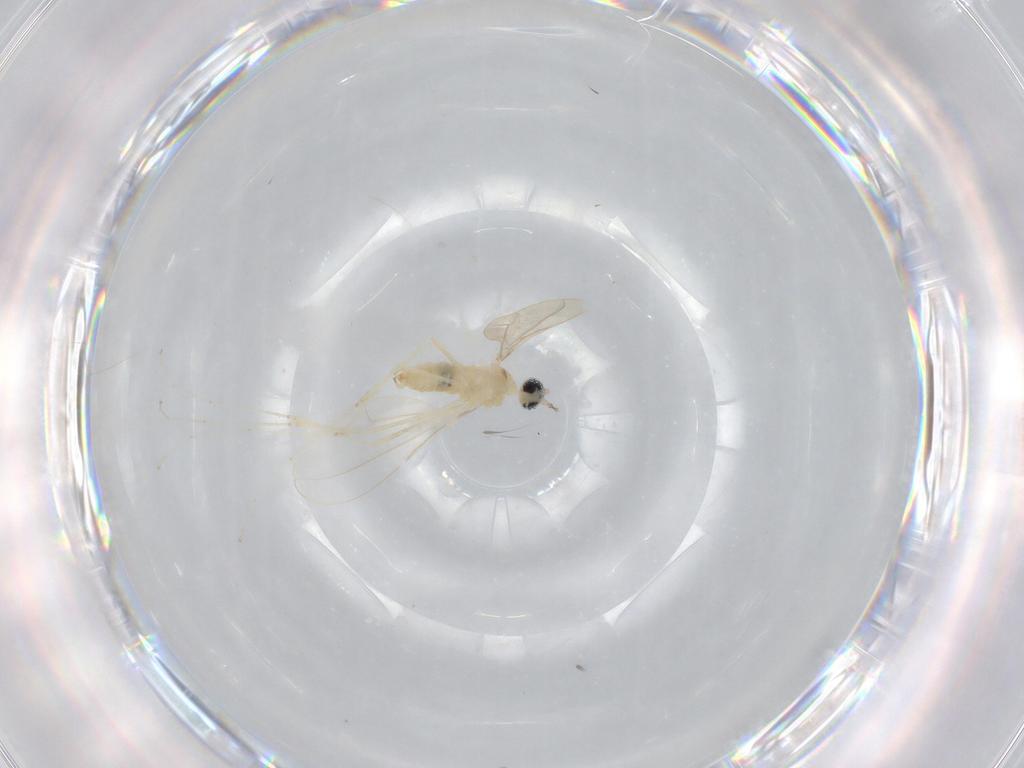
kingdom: Animalia
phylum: Arthropoda
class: Insecta
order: Diptera
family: Cecidomyiidae
